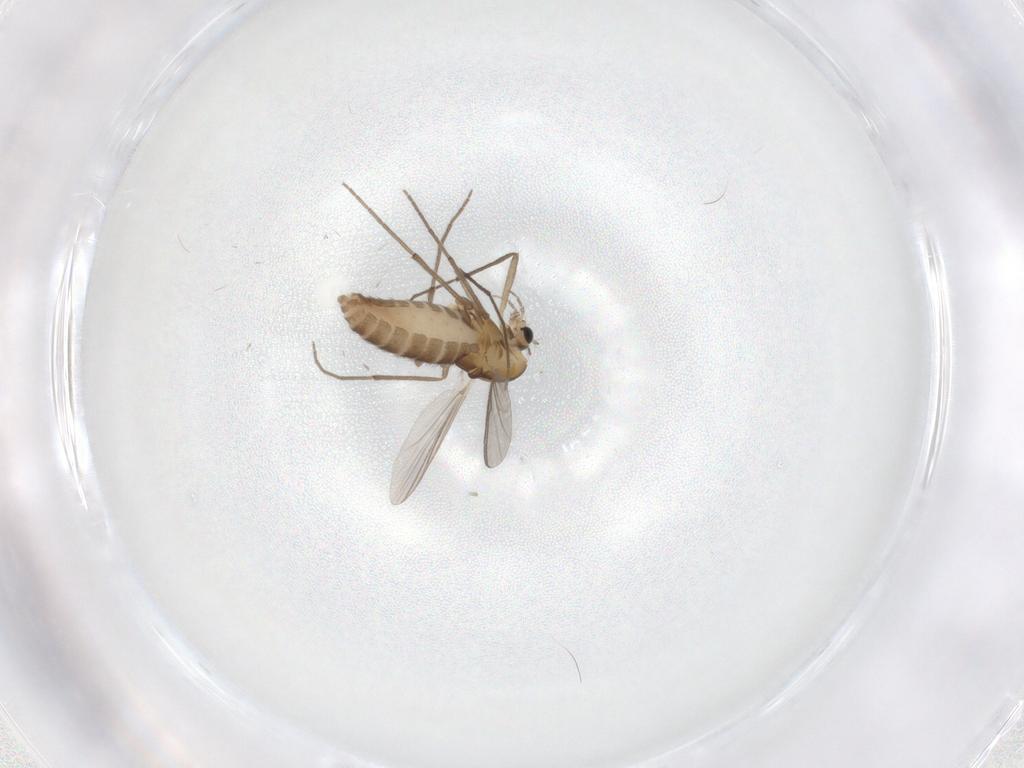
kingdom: Animalia
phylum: Arthropoda
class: Insecta
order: Diptera
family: Chironomidae
